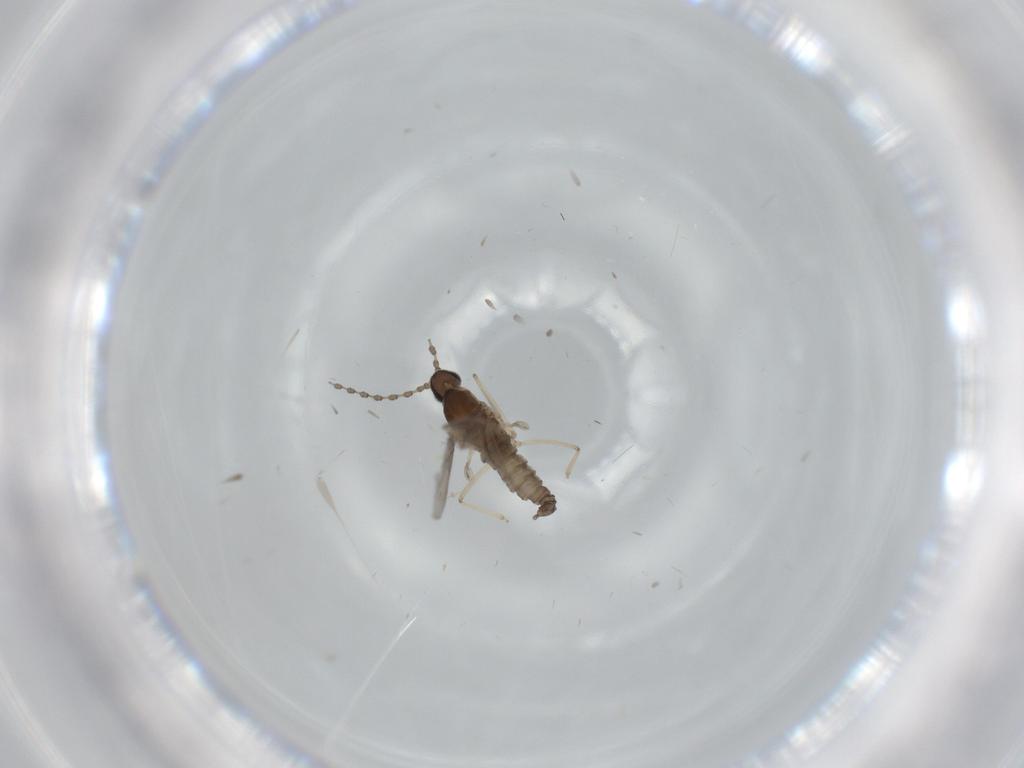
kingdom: Animalia
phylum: Arthropoda
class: Insecta
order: Diptera
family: Cecidomyiidae
